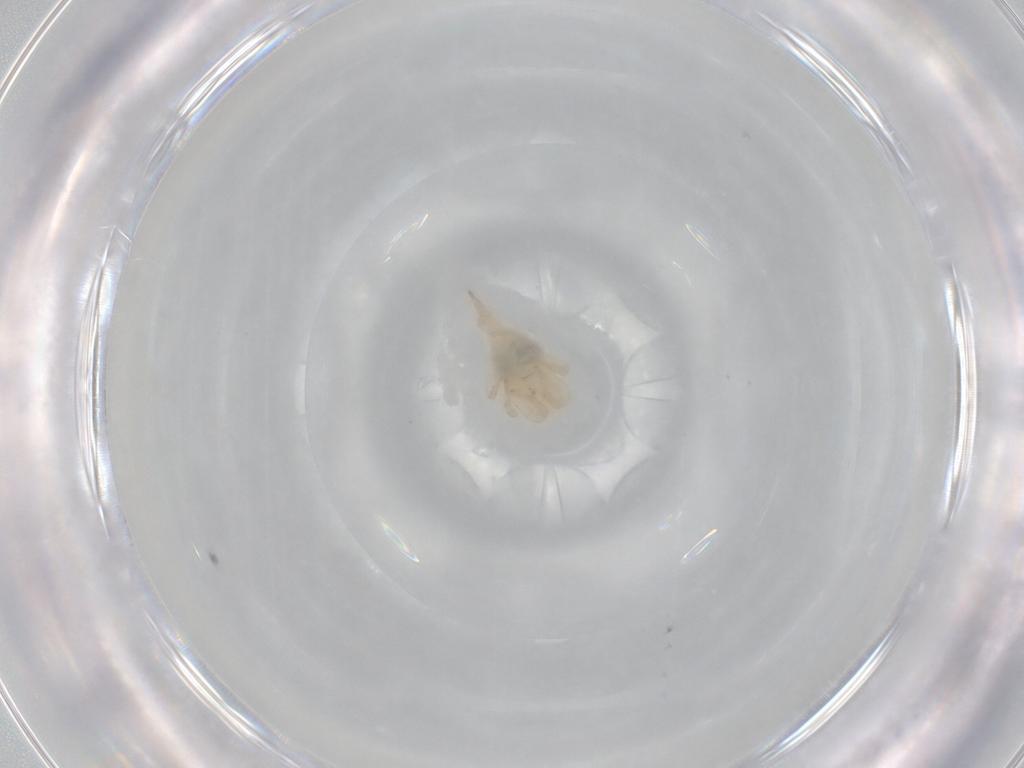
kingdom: Animalia
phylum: Arthropoda
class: Arachnida
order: Trombidiformes
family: Bdellidae
